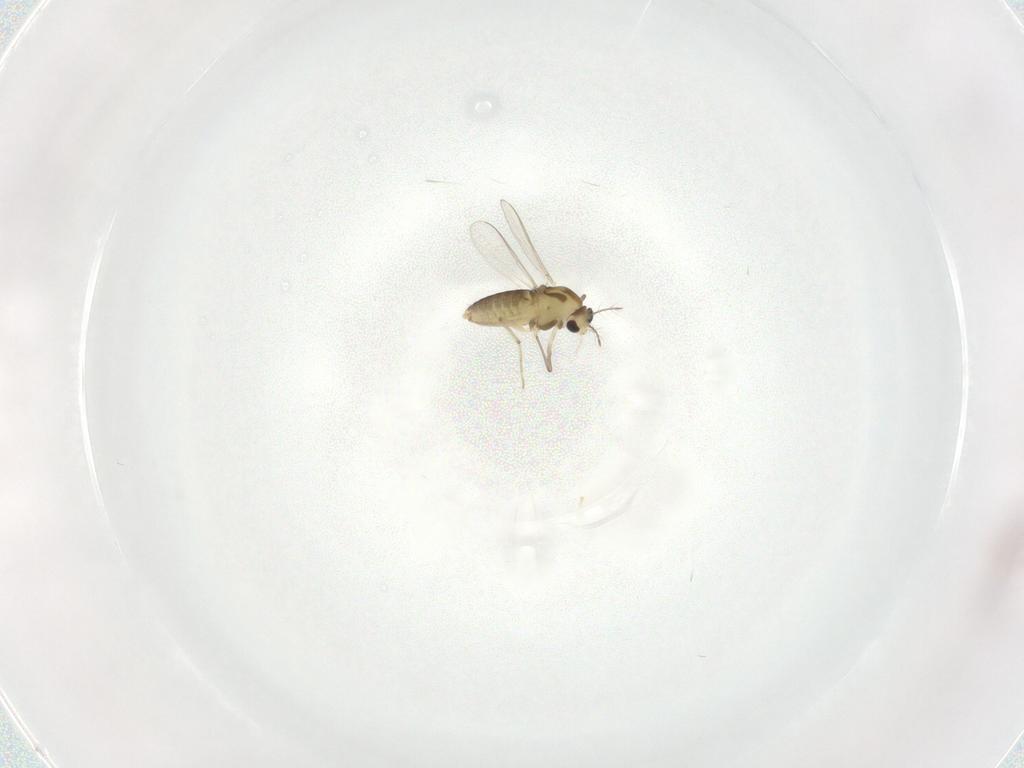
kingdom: Animalia
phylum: Arthropoda
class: Insecta
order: Diptera
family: Chironomidae
